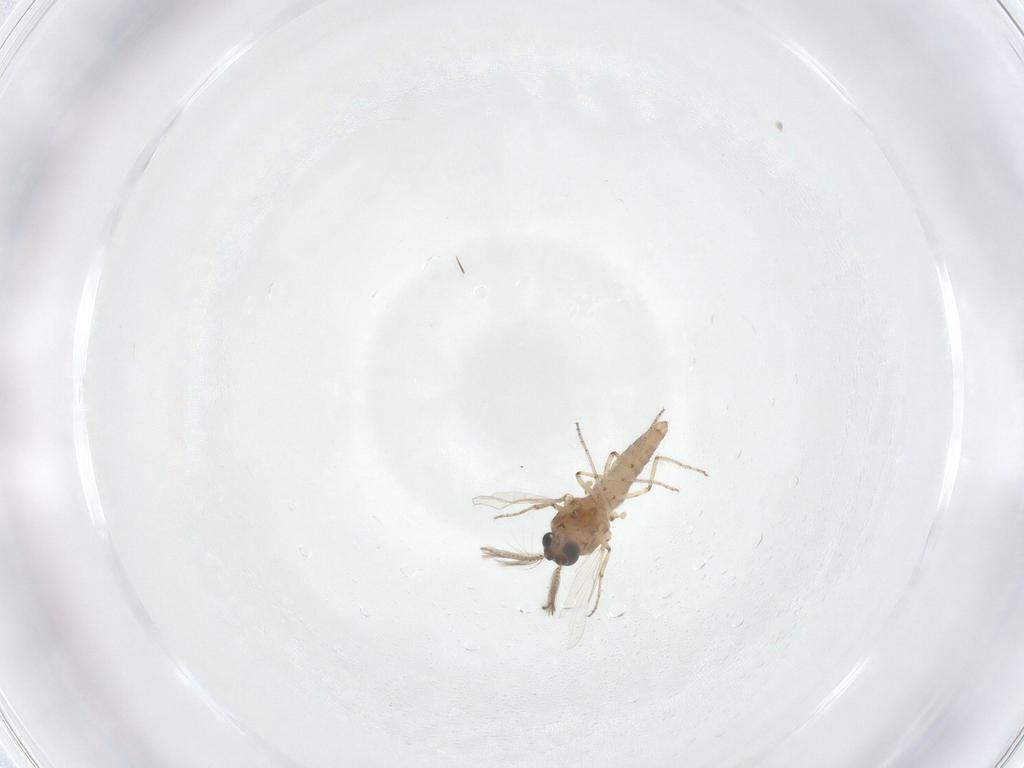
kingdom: Animalia
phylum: Arthropoda
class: Insecta
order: Diptera
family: Ceratopogonidae
